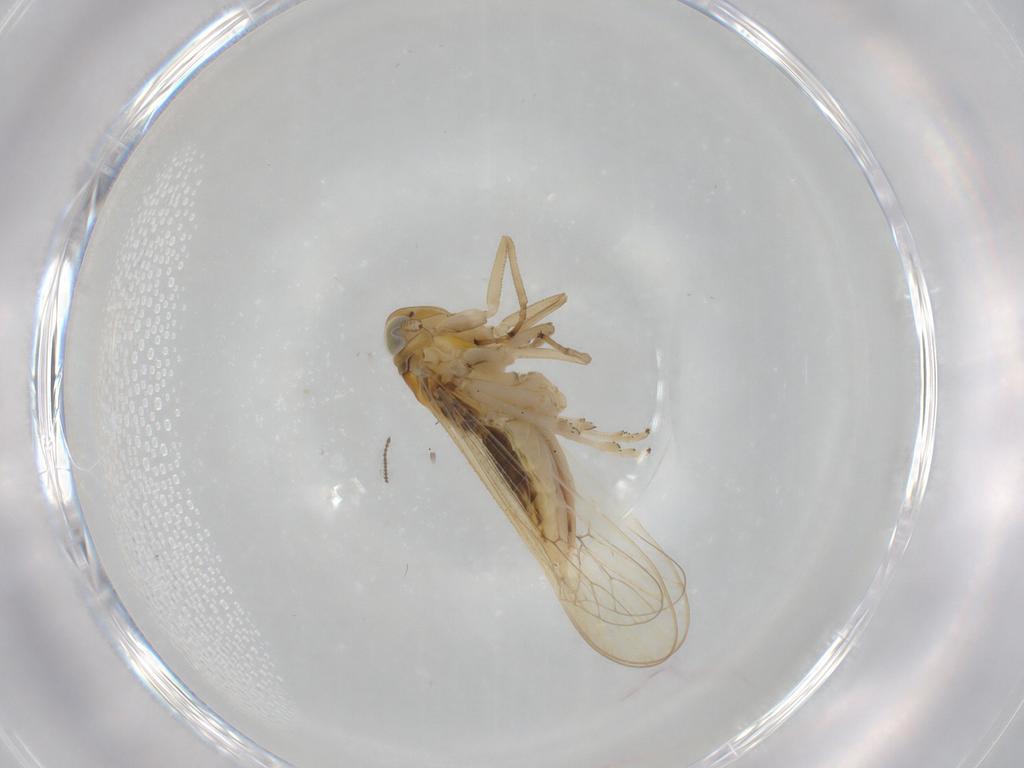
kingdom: Animalia
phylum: Arthropoda
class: Insecta
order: Hemiptera
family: Delphacidae
